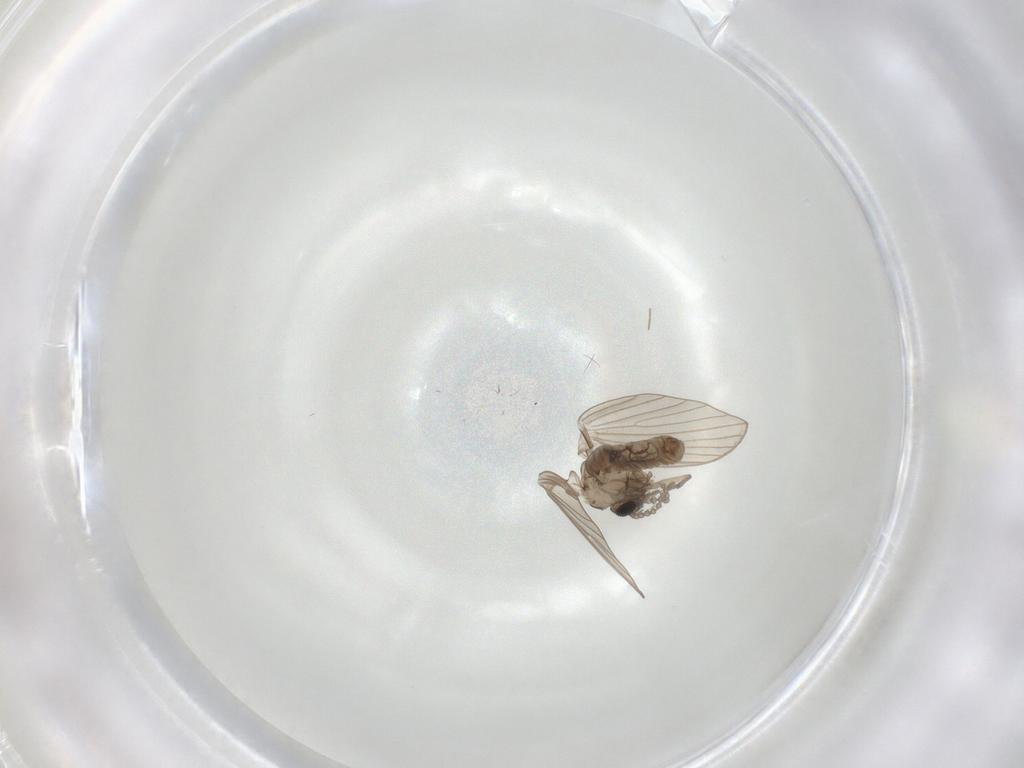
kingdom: Animalia
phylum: Arthropoda
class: Insecta
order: Diptera
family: Psychodidae
